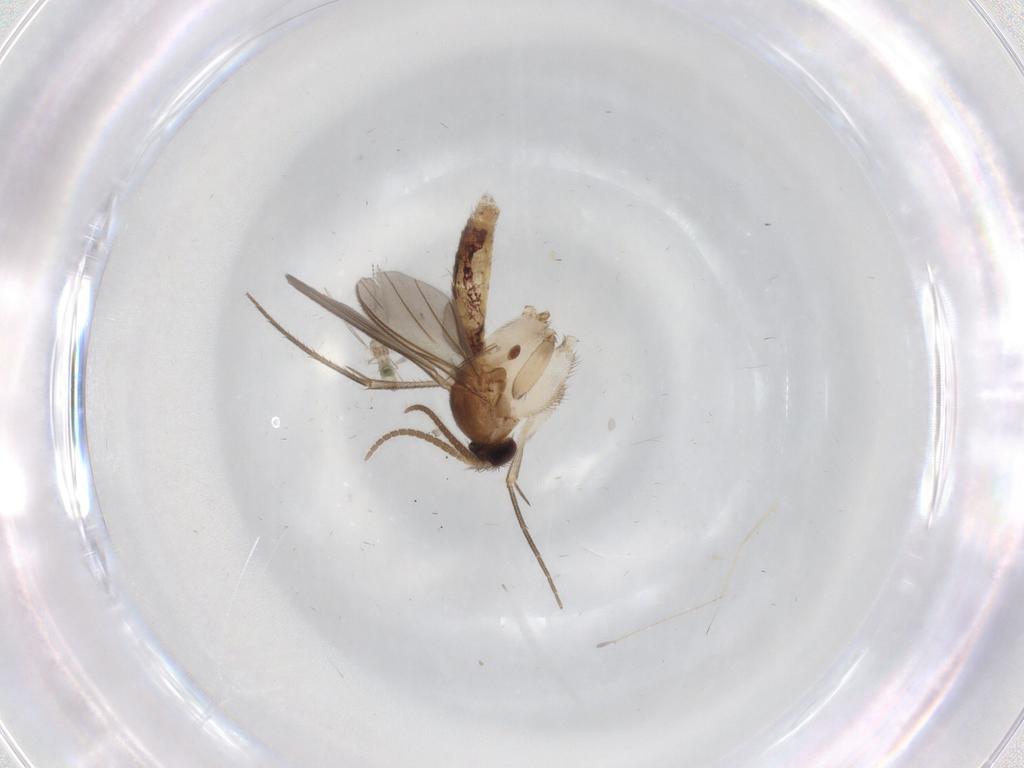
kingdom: Animalia
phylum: Arthropoda
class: Insecta
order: Diptera
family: Mycetophilidae
